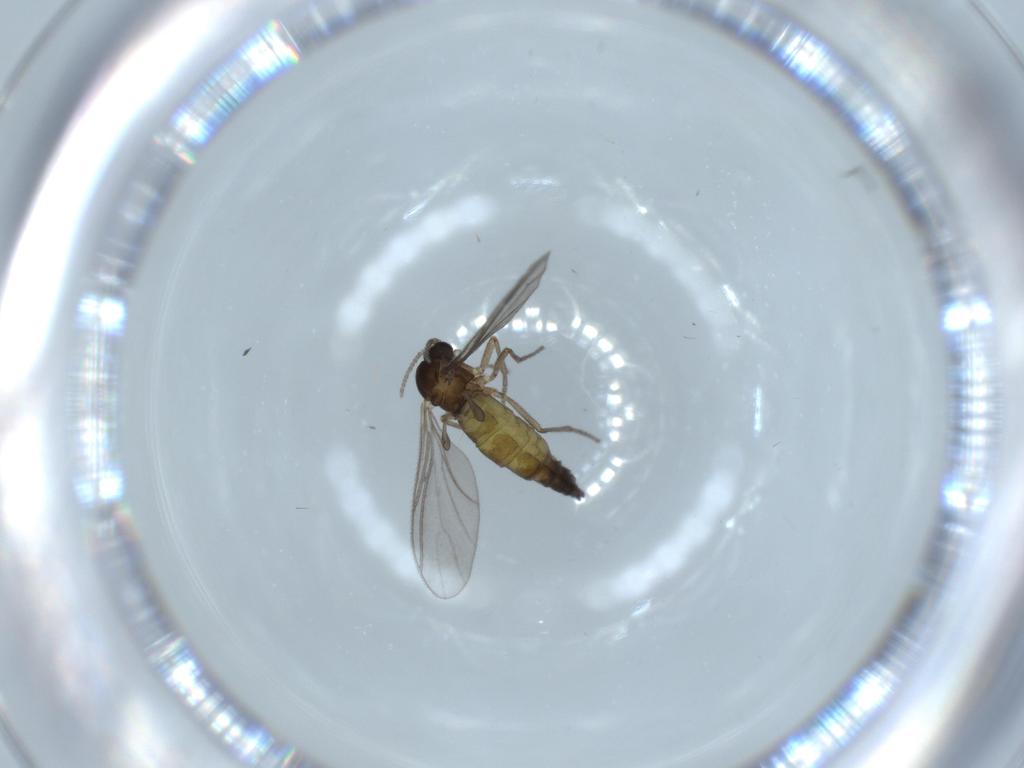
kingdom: Animalia
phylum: Arthropoda
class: Insecta
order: Diptera
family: Sciaridae
